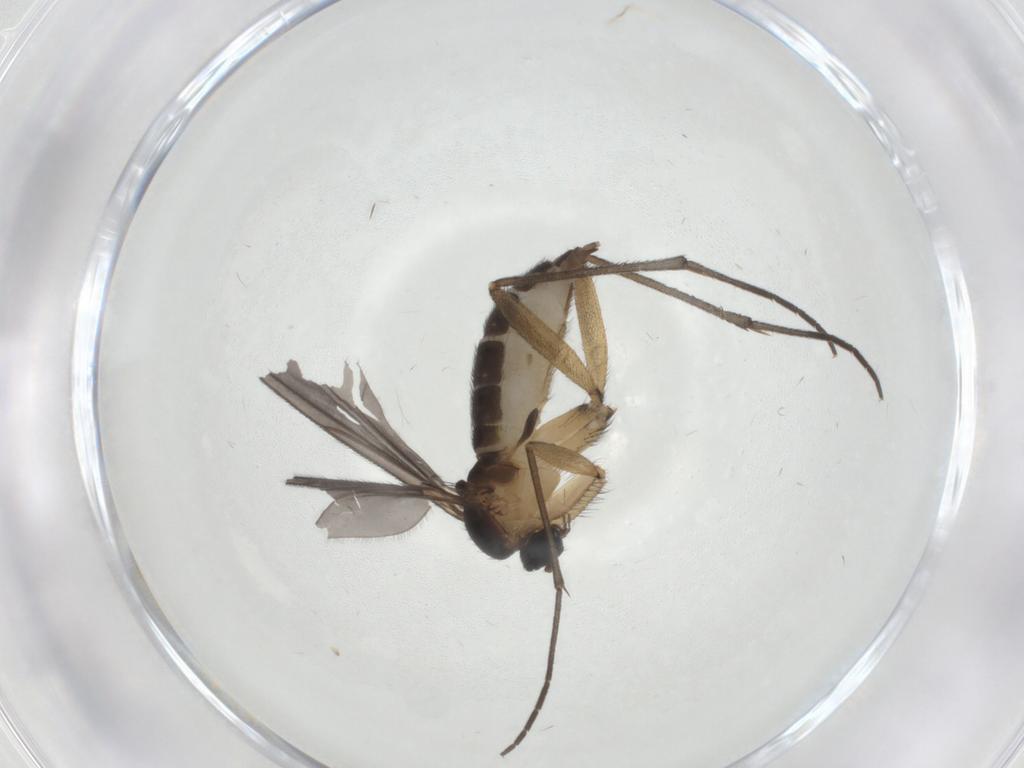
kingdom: Animalia
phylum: Arthropoda
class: Insecta
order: Diptera
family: Sciaridae
